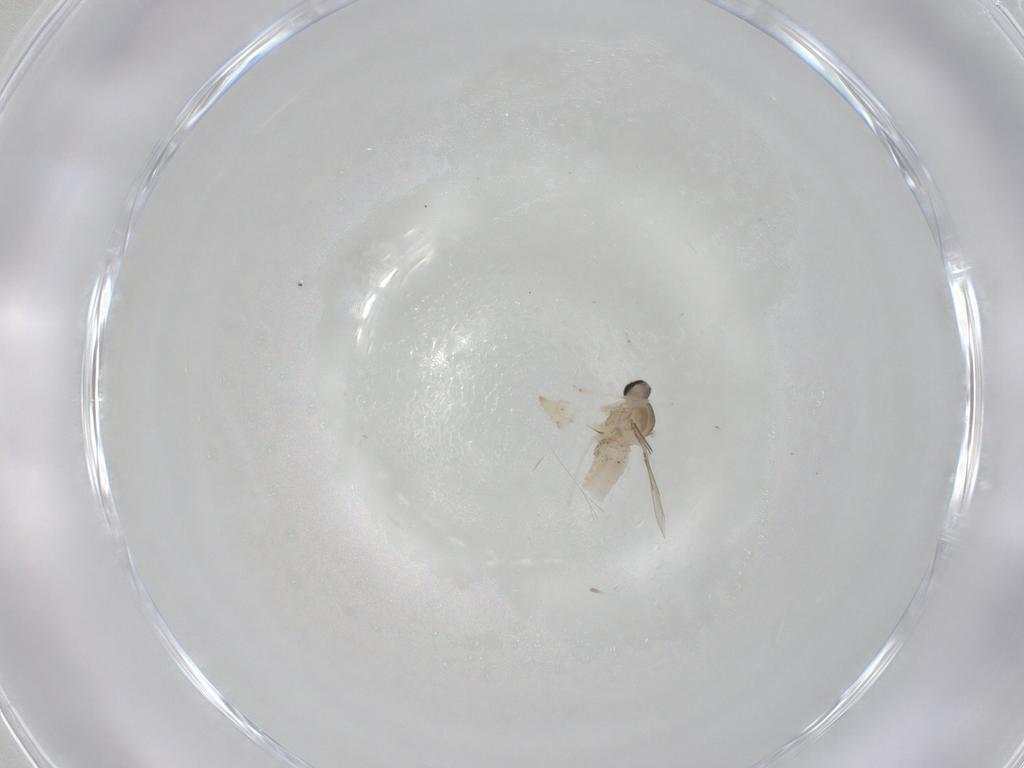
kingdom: Animalia
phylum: Arthropoda
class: Insecta
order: Diptera
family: Cecidomyiidae
